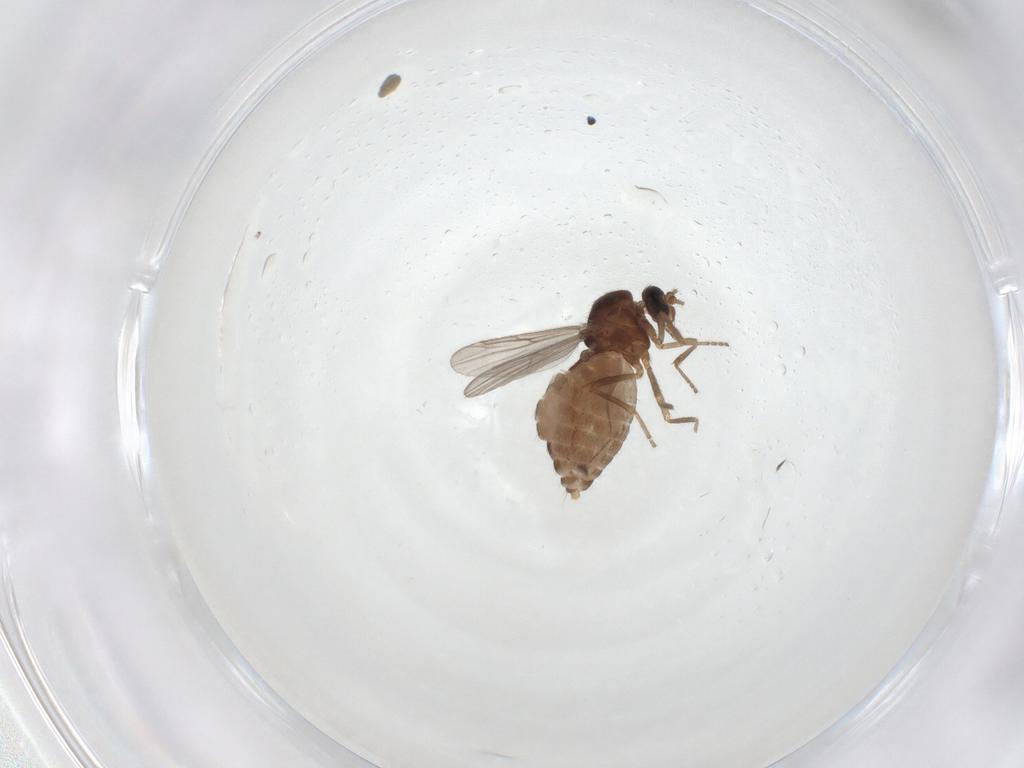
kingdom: Animalia
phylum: Arthropoda
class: Insecta
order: Diptera
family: Ceratopogonidae
